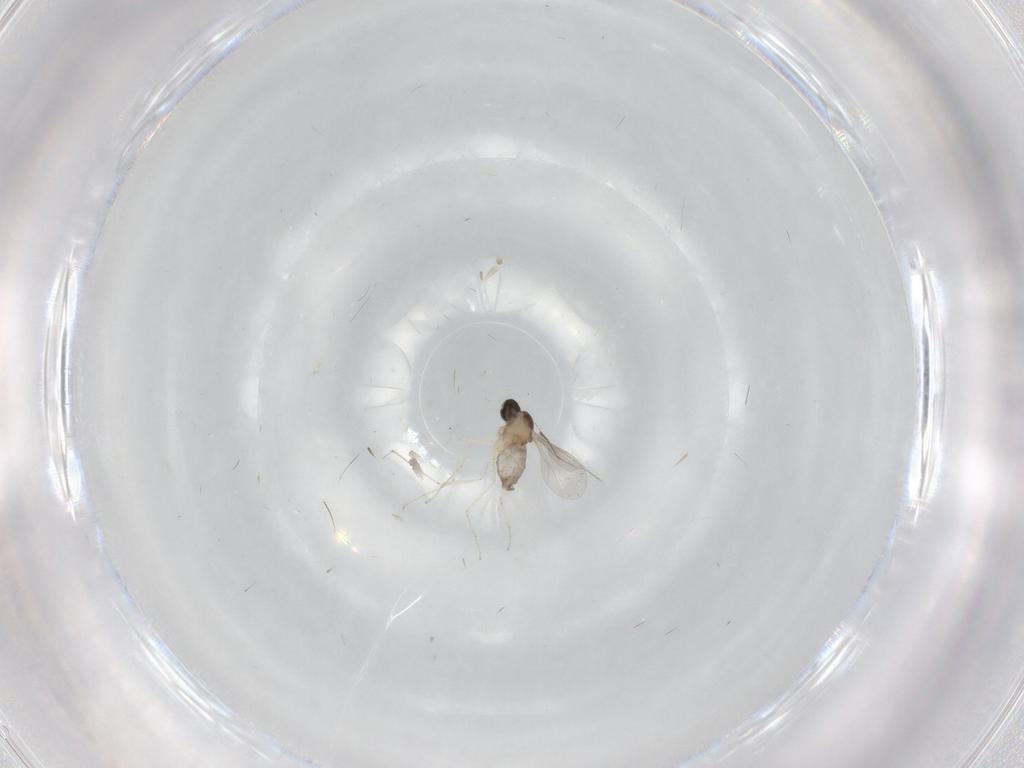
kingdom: Animalia
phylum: Arthropoda
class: Insecta
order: Diptera
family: Cecidomyiidae
